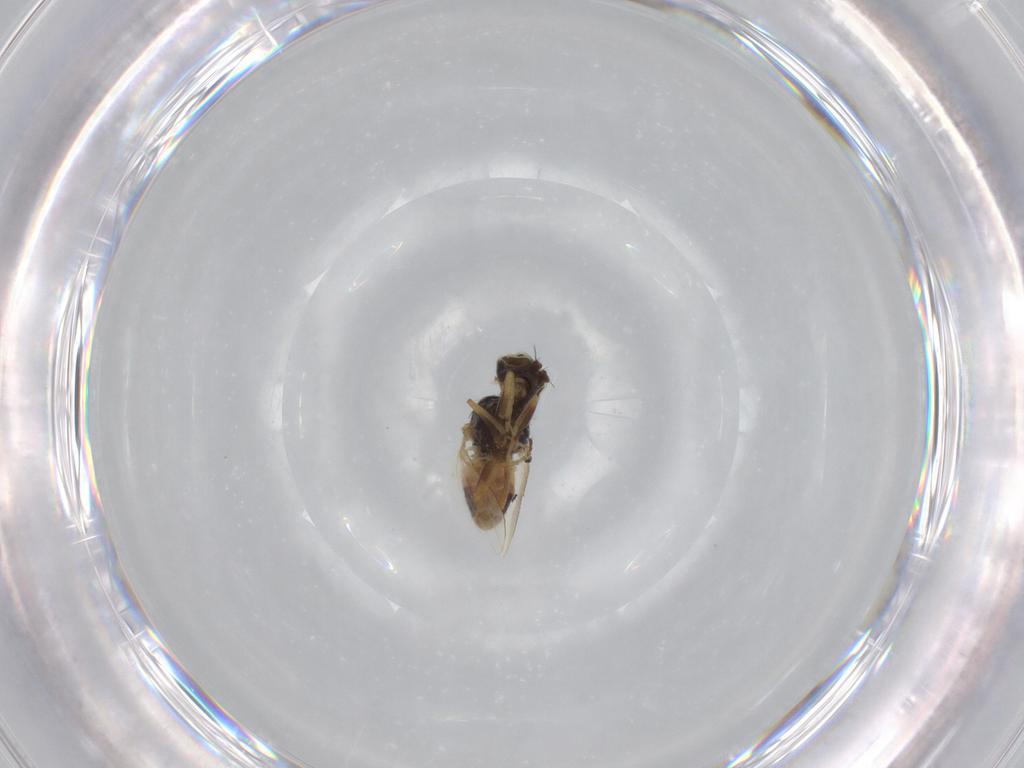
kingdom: Animalia
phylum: Arthropoda
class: Insecta
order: Diptera
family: Ephydridae
